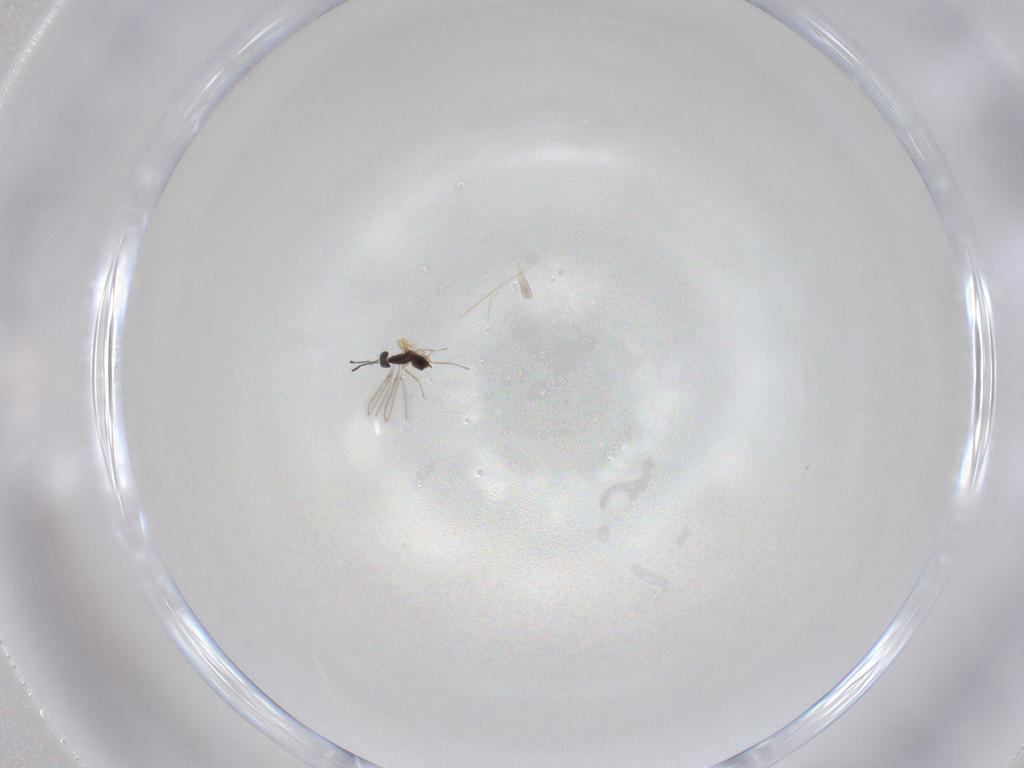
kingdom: Animalia
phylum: Arthropoda
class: Insecta
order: Hymenoptera
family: Mymaridae
